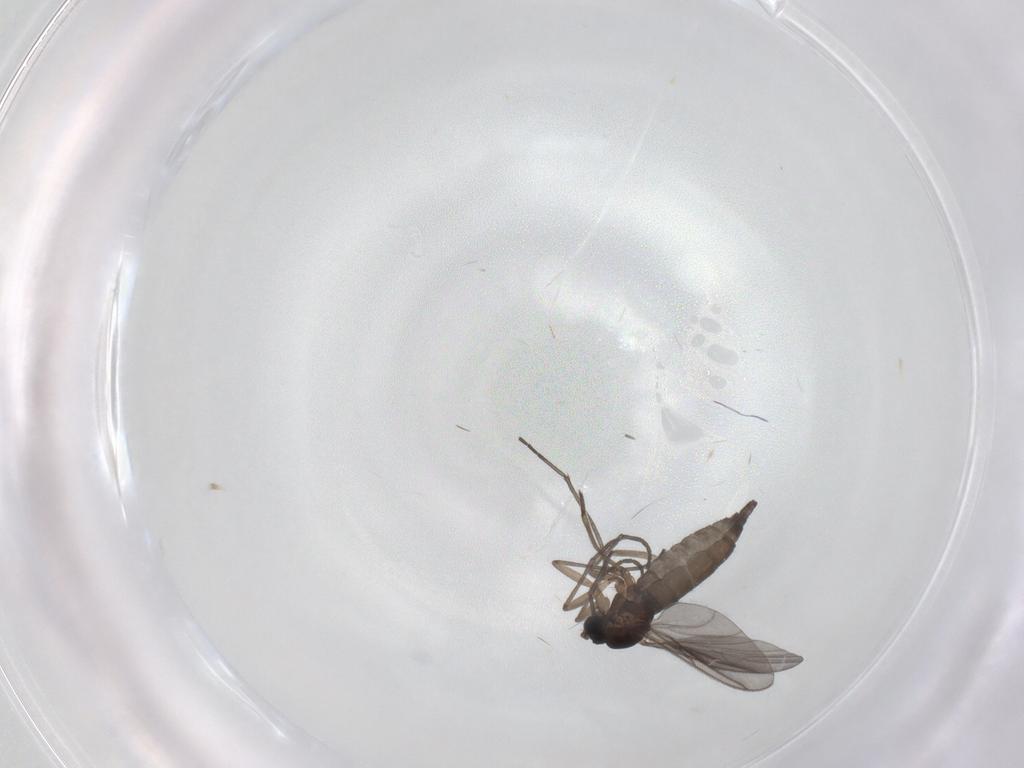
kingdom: Animalia
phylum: Arthropoda
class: Insecta
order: Diptera
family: Sciaridae
